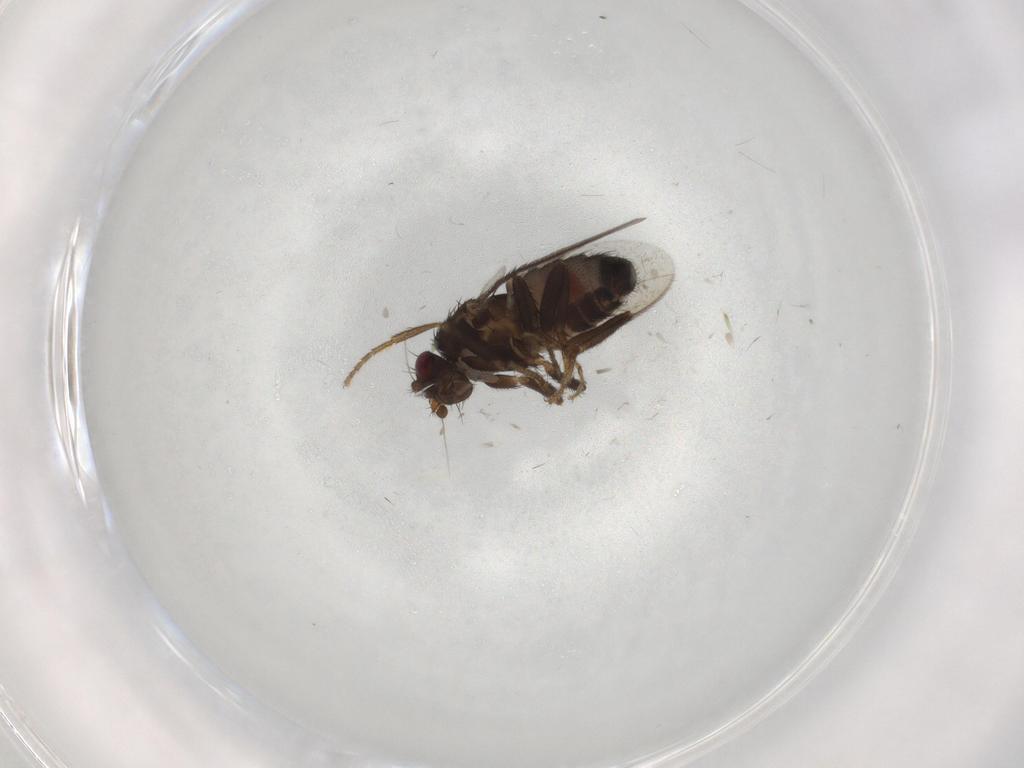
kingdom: Animalia
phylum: Arthropoda
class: Insecta
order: Diptera
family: Sphaeroceridae
